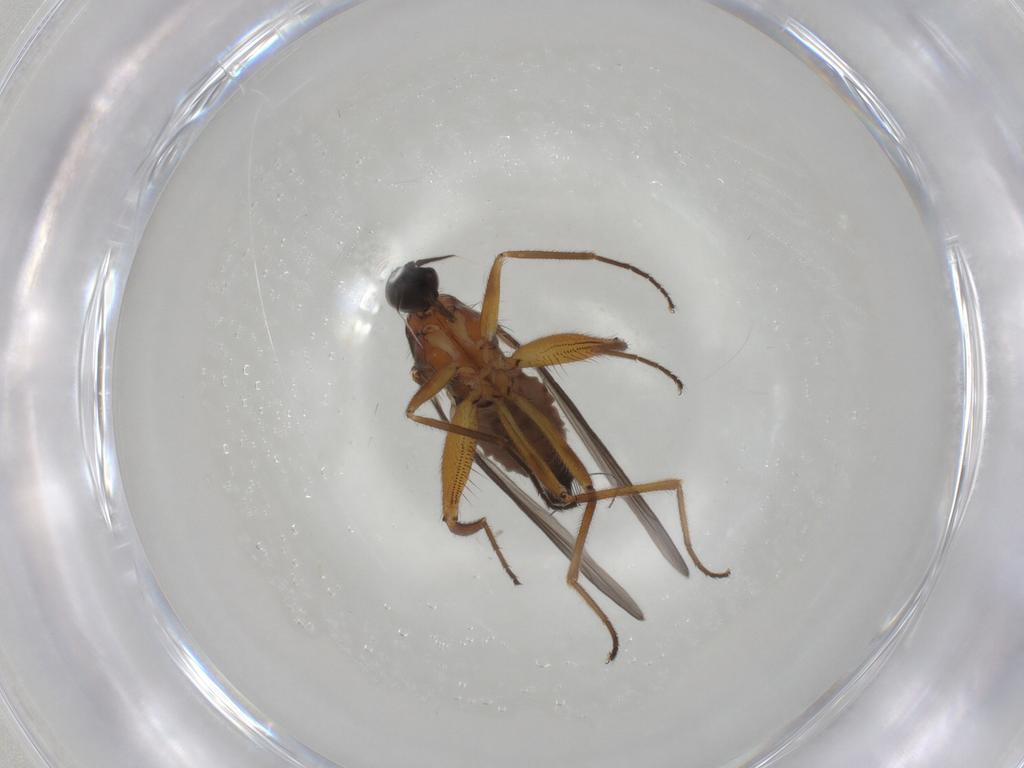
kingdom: Animalia
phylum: Arthropoda
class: Insecta
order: Diptera
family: Hybotidae
